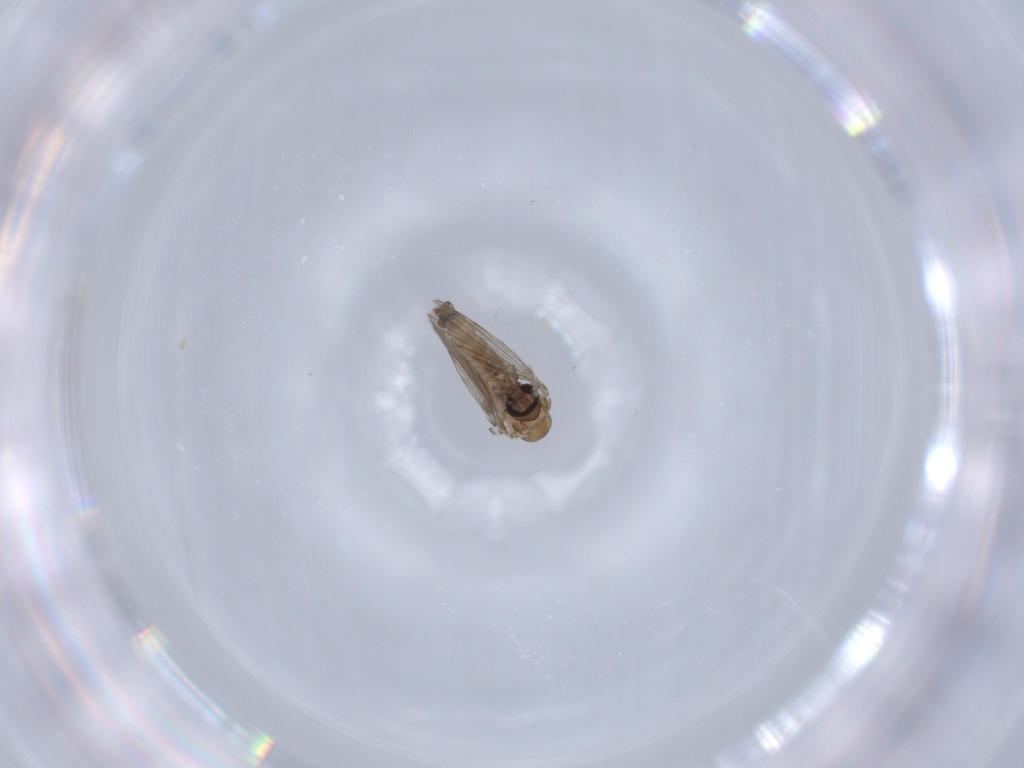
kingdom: Animalia
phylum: Arthropoda
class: Insecta
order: Diptera
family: Psychodidae
